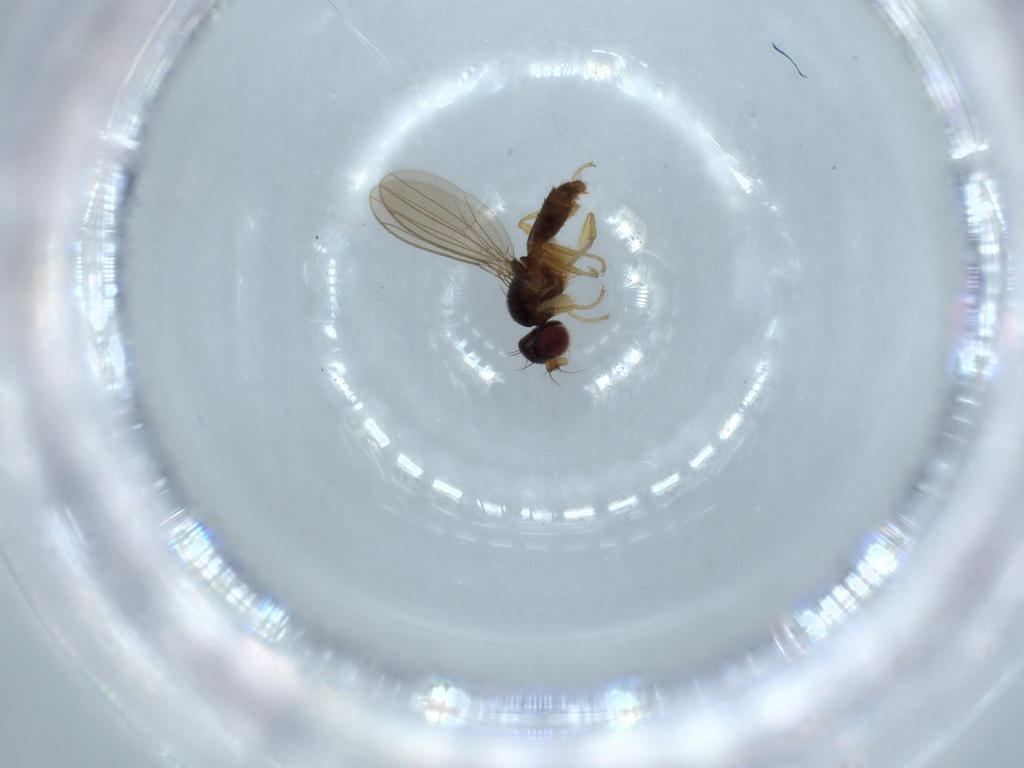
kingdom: Animalia
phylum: Arthropoda
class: Insecta
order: Diptera
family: Anthomyzidae
